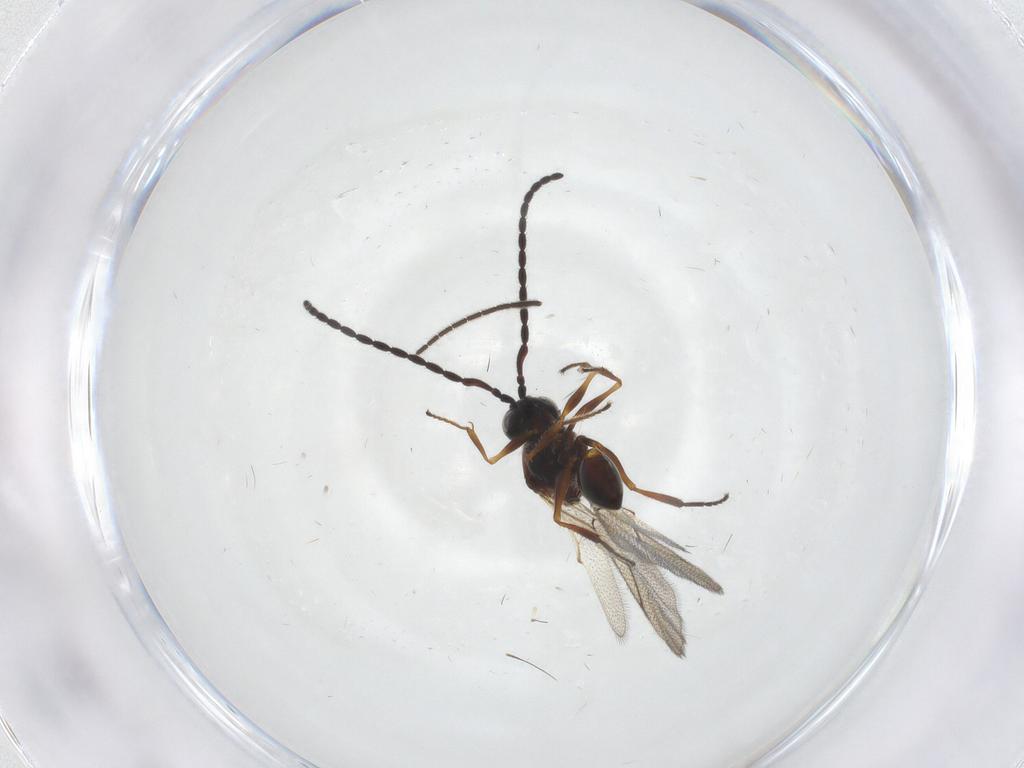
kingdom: Animalia
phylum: Arthropoda
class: Insecta
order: Hymenoptera
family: Figitidae
